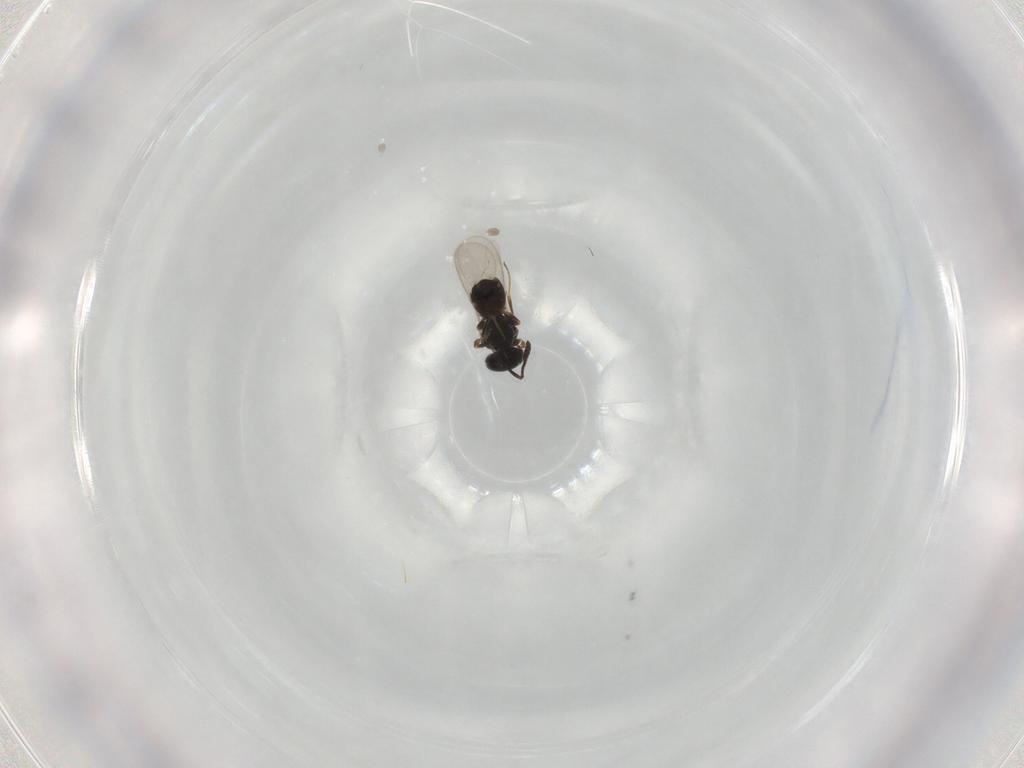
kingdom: Animalia
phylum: Arthropoda
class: Insecta
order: Hymenoptera
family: Scelionidae
